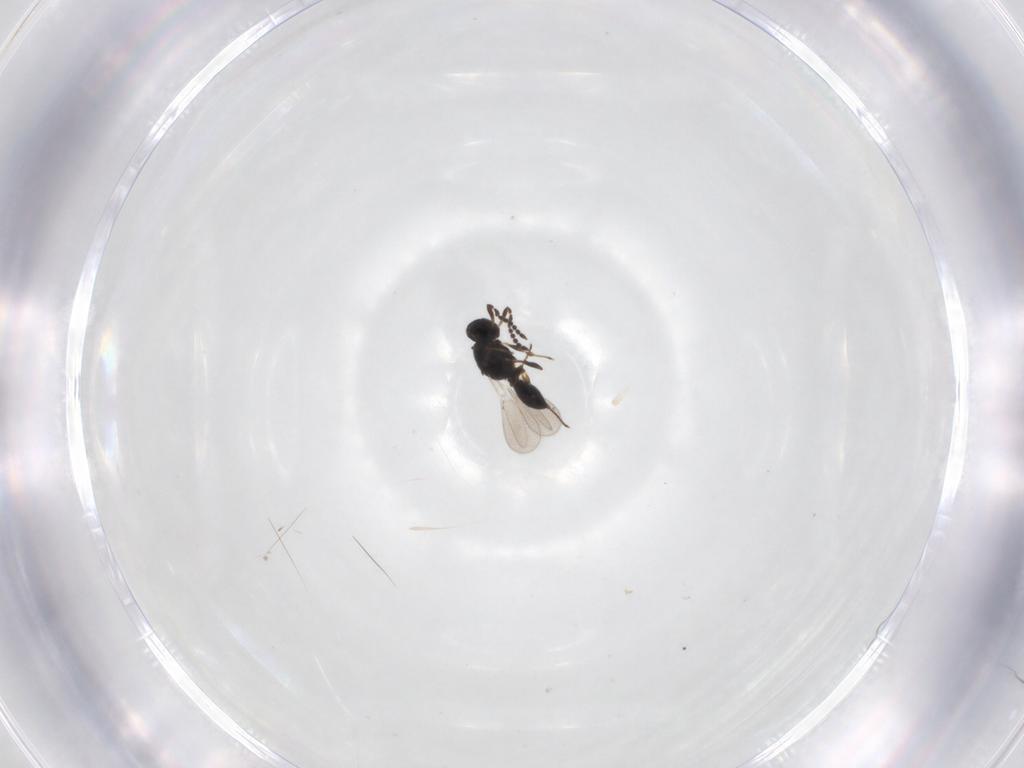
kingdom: Animalia
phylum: Arthropoda
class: Insecta
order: Hymenoptera
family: Platygastridae
